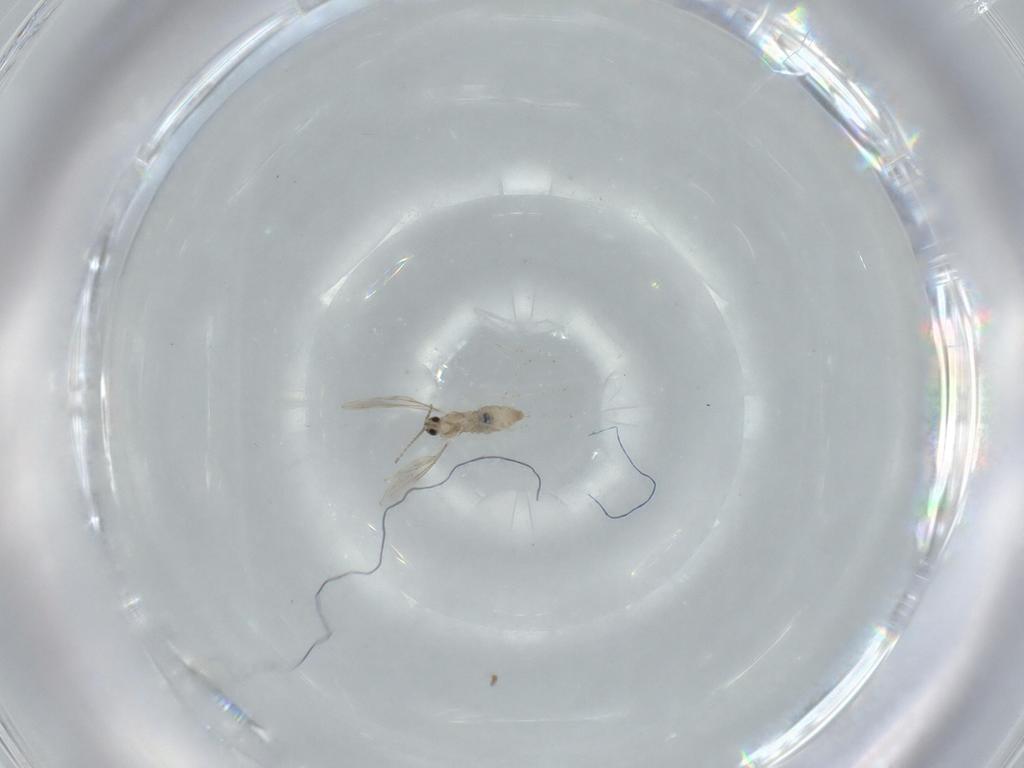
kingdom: Animalia
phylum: Arthropoda
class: Insecta
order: Diptera
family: Cecidomyiidae
